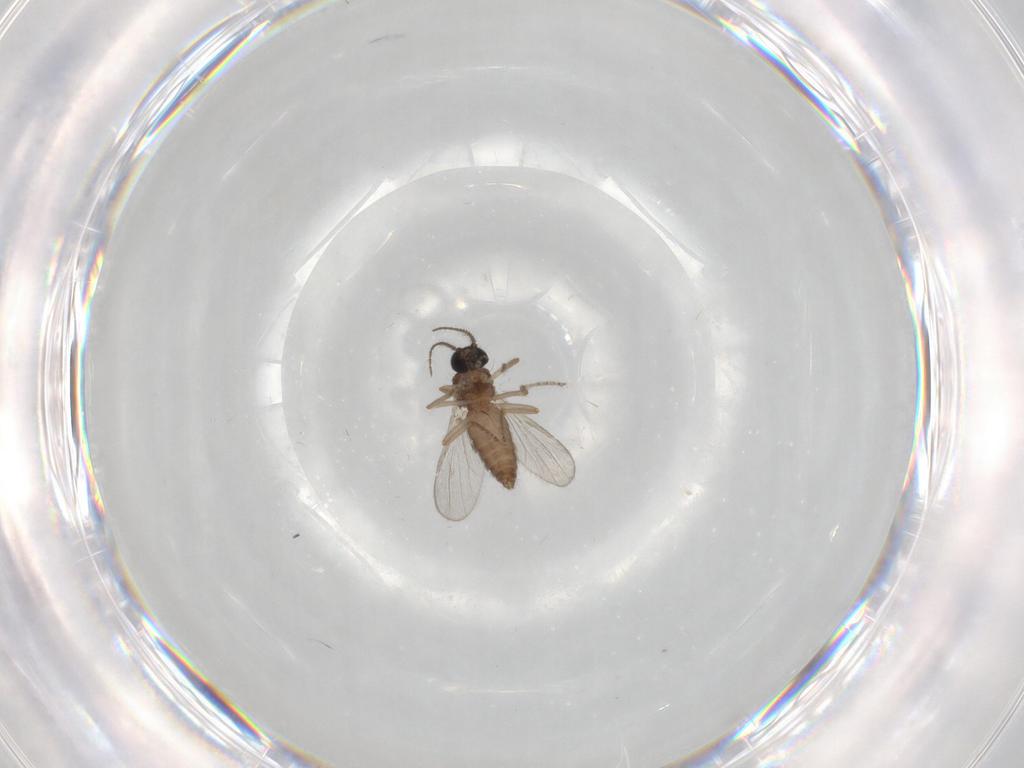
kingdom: Animalia
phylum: Arthropoda
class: Insecta
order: Diptera
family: Ceratopogonidae
